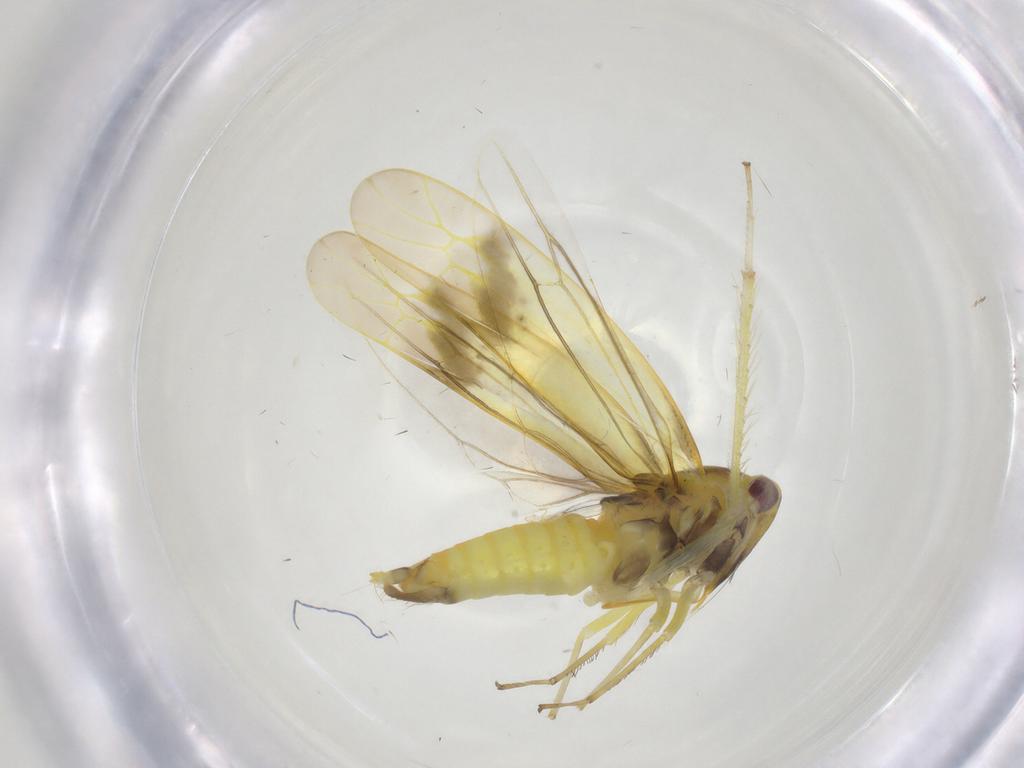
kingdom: Animalia
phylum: Arthropoda
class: Insecta
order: Hemiptera
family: Cicadellidae
